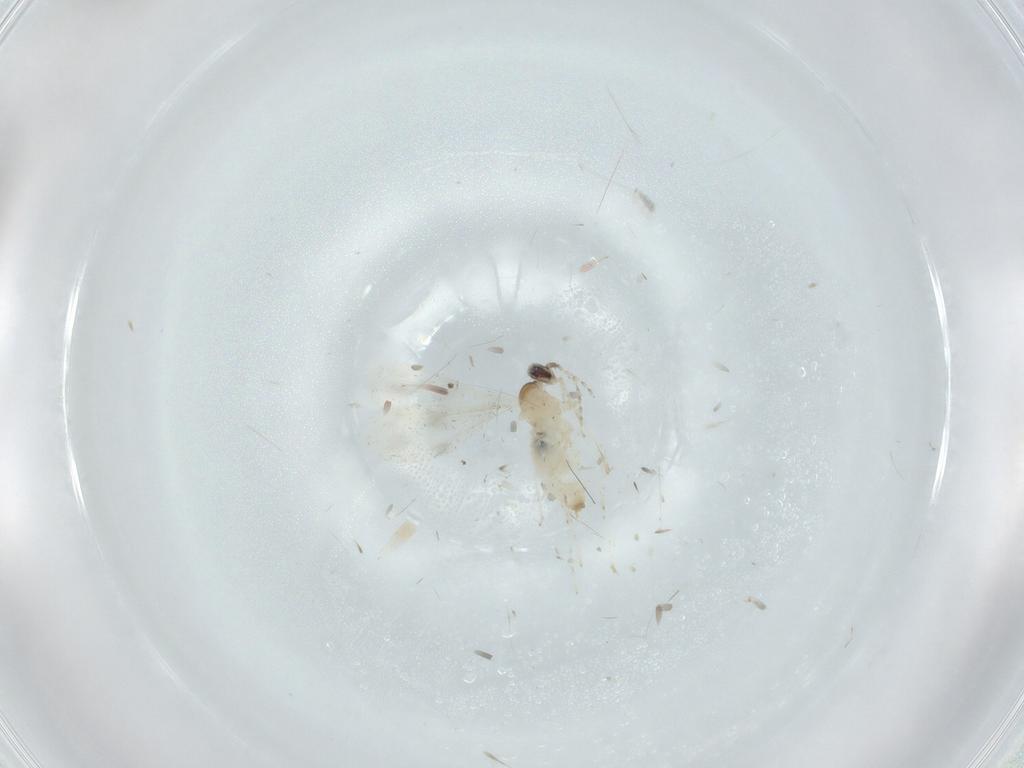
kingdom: Animalia
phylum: Arthropoda
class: Insecta
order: Diptera
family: Cecidomyiidae
